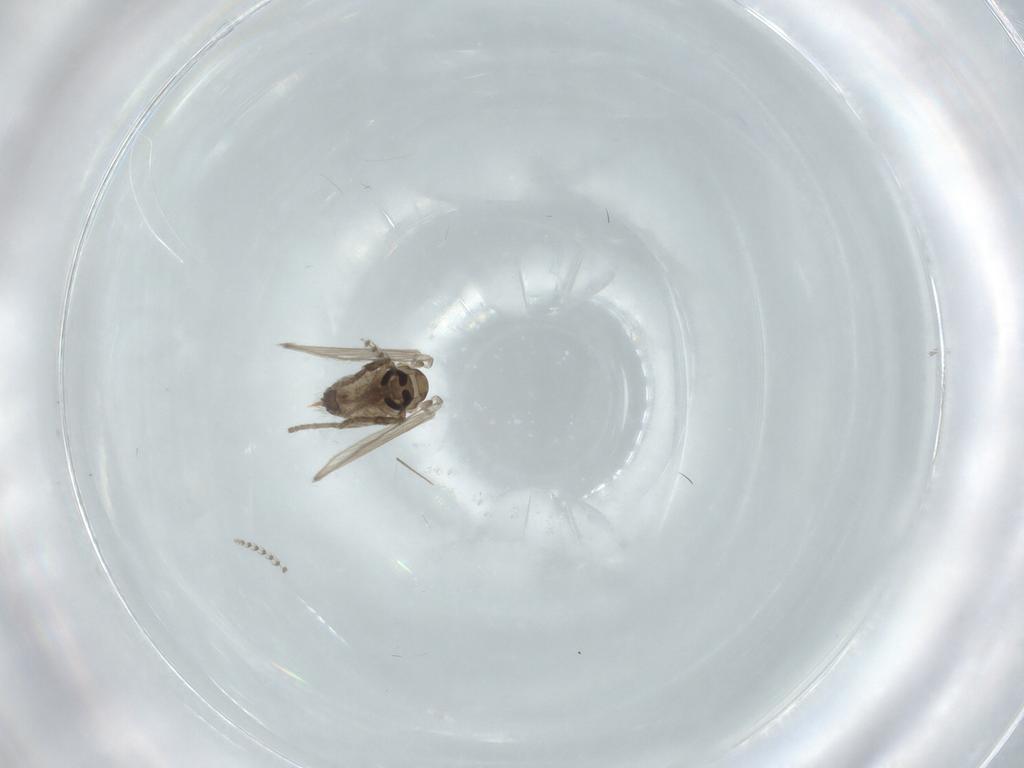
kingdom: Animalia
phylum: Arthropoda
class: Insecta
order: Diptera
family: Psychodidae
